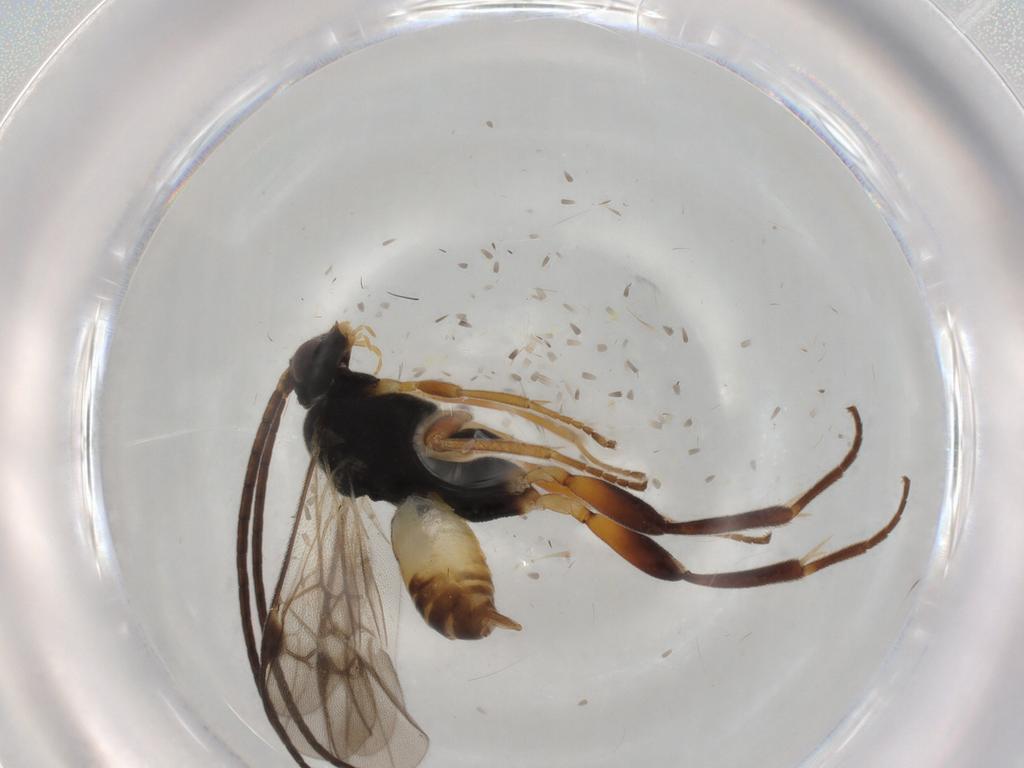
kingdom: Animalia
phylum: Arthropoda
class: Insecta
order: Hymenoptera
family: Braconidae
